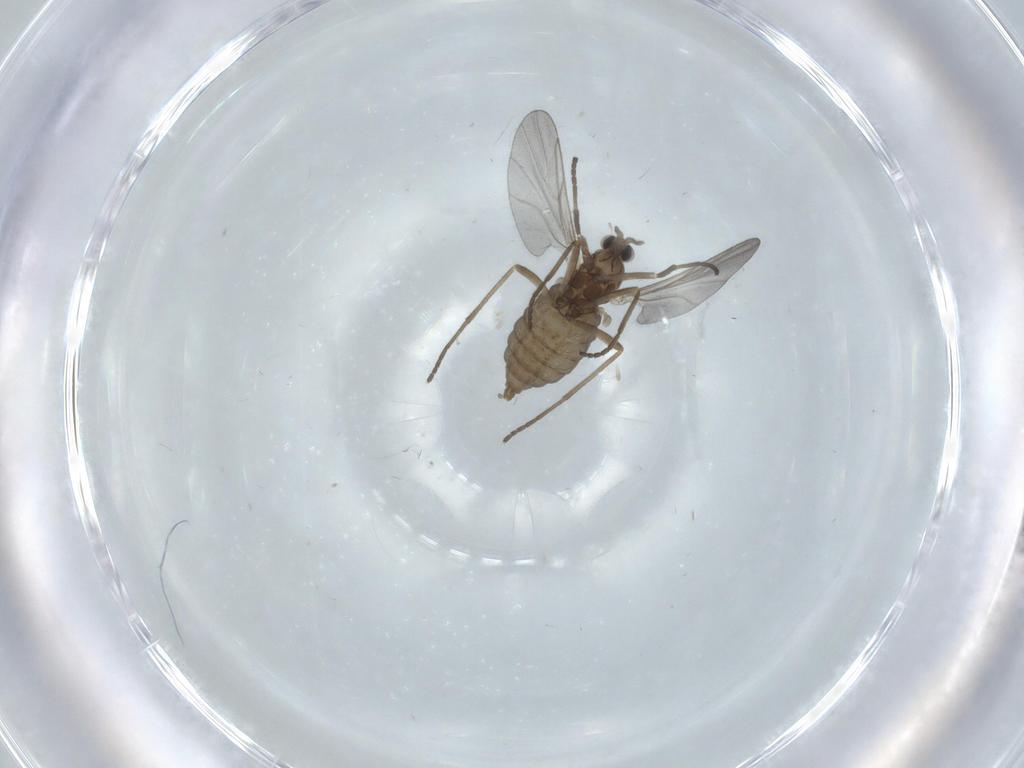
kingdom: Animalia
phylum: Arthropoda
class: Insecta
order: Diptera
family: Cecidomyiidae
